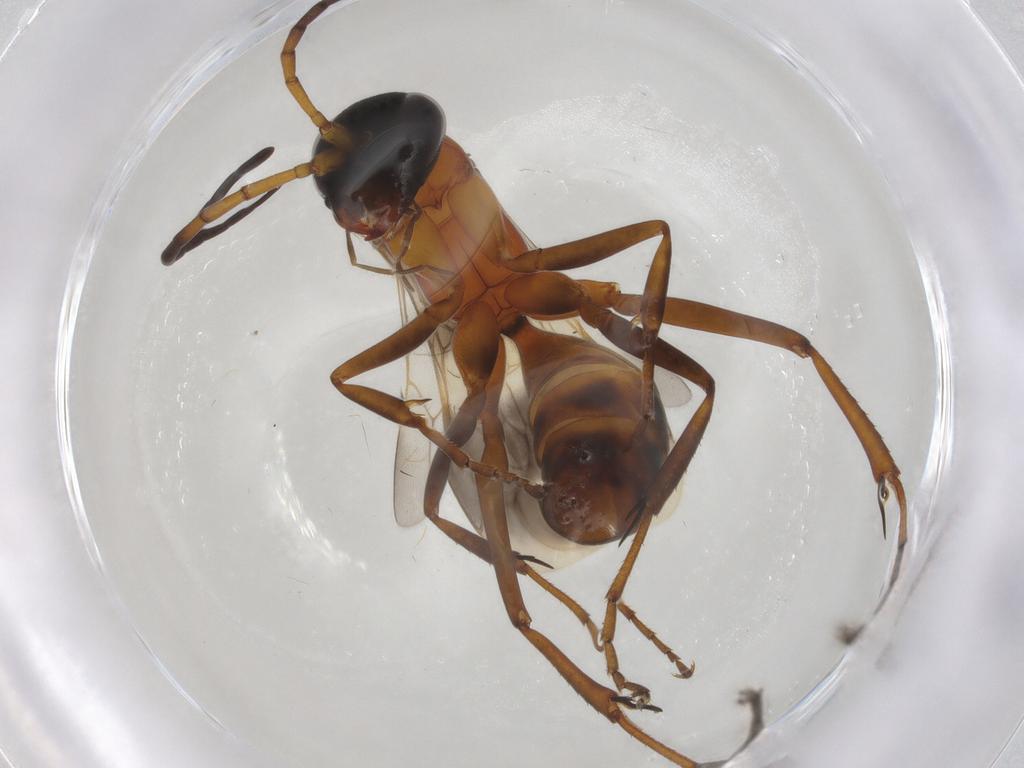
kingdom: Animalia
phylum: Arthropoda
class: Insecta
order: Hymenoptera
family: Pompilidae
